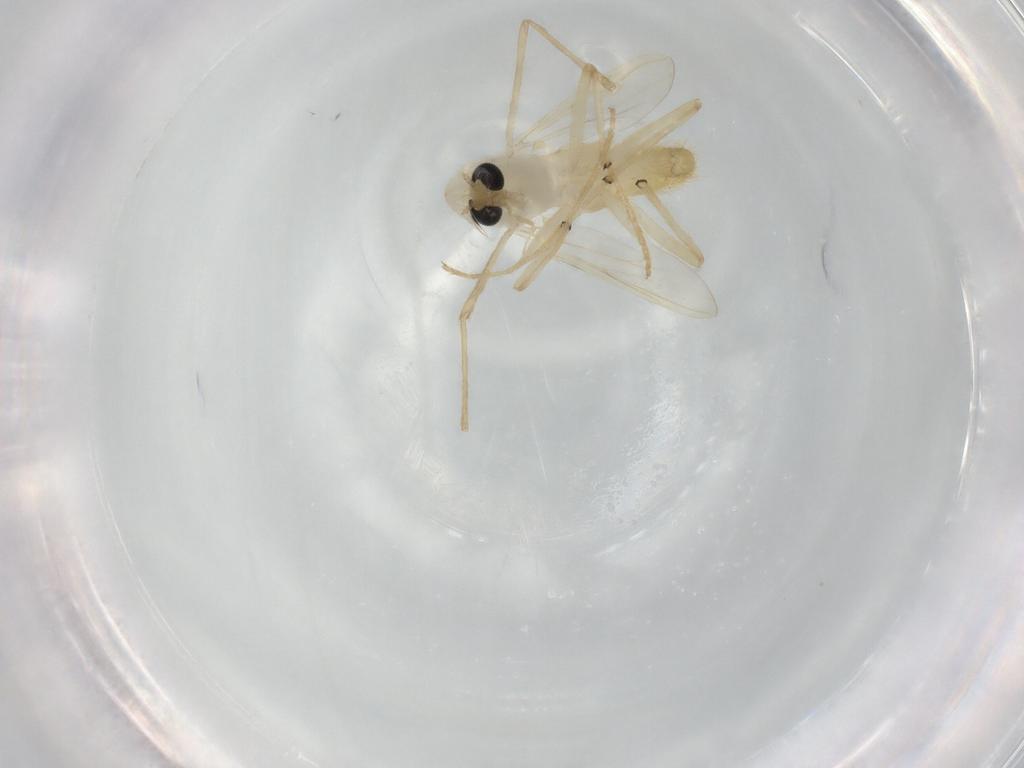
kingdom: Animalia
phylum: Arthropoda
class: Insecta
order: Diptera
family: Chironomidae
